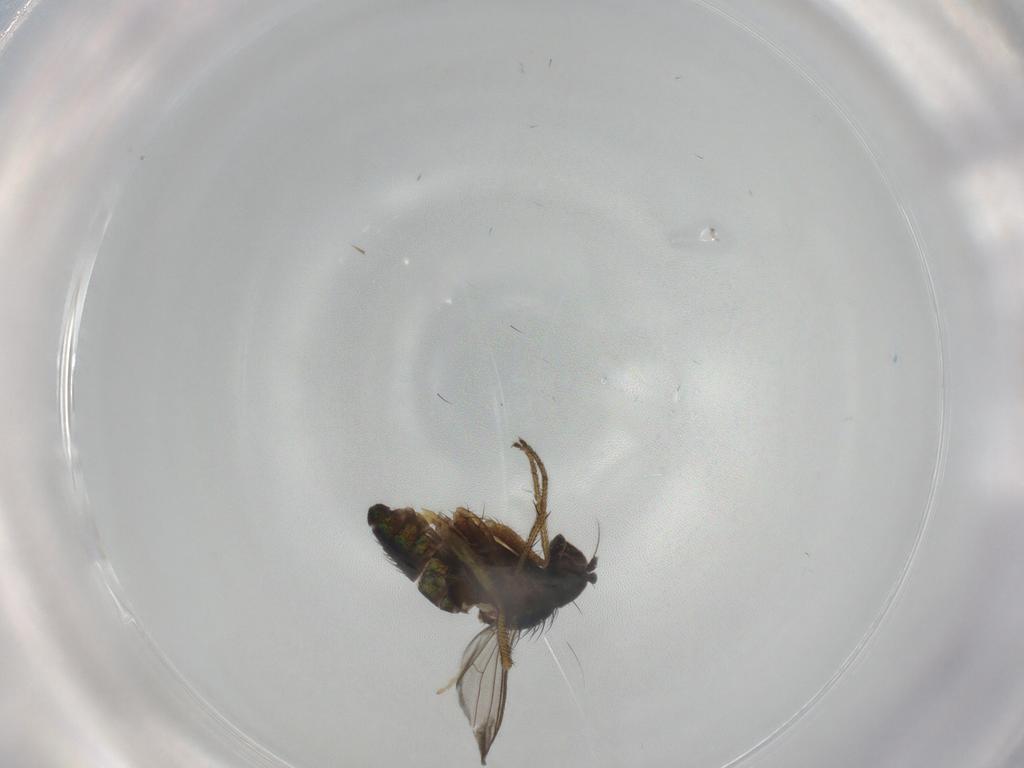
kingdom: Animalia
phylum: Arthropoda
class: Insecta
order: Diptera
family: Dolichopodidae
